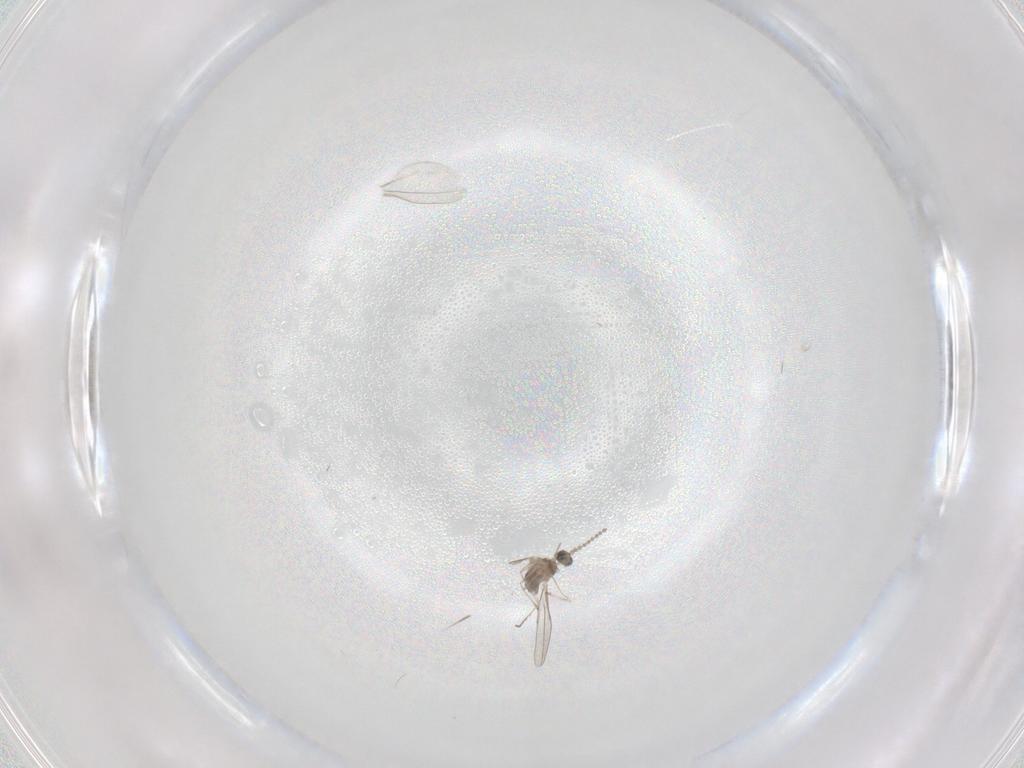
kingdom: Animalia
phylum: Arthropoda
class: Insecta
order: Diptera
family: Cecidomyiidae
